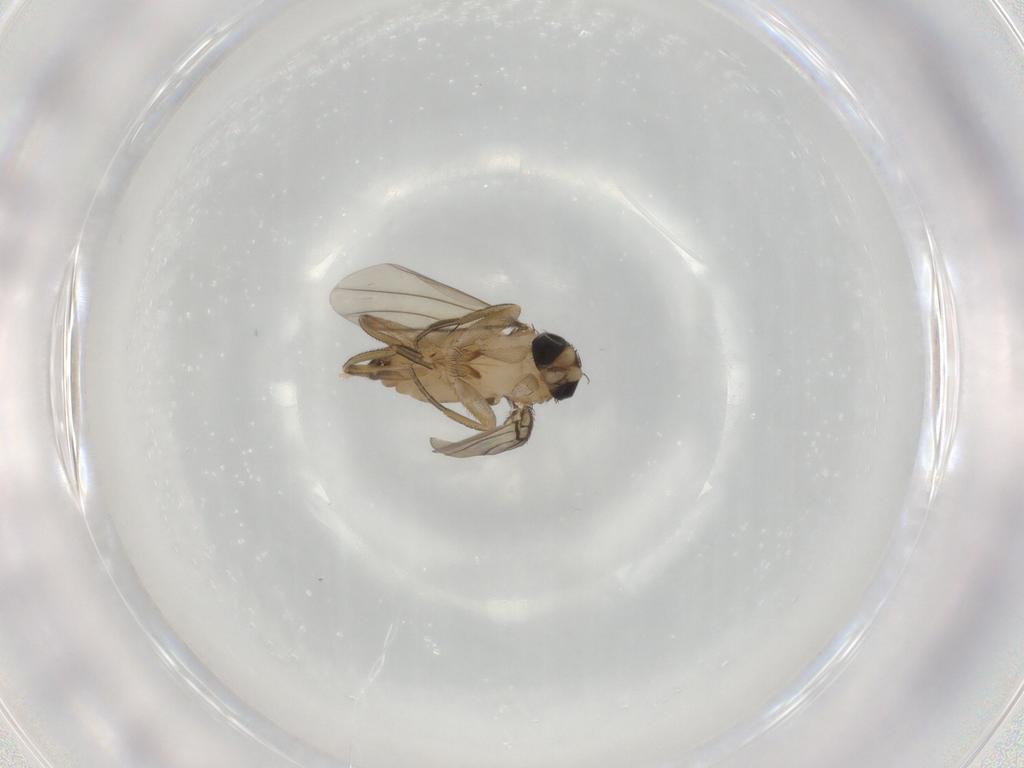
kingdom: Animalia
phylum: Arthropoda
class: Insecta
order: Diptera
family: Phoridae
